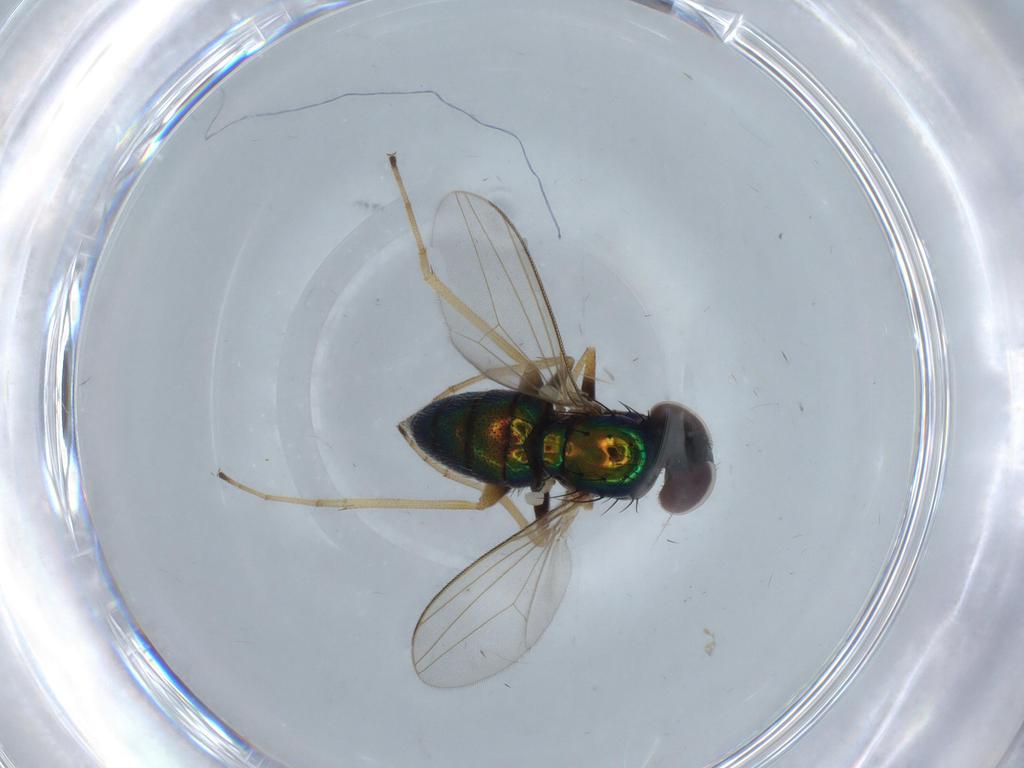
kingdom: Animalia
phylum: Arthropoda
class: Insecta
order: Diptera
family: Dolichopodidae
